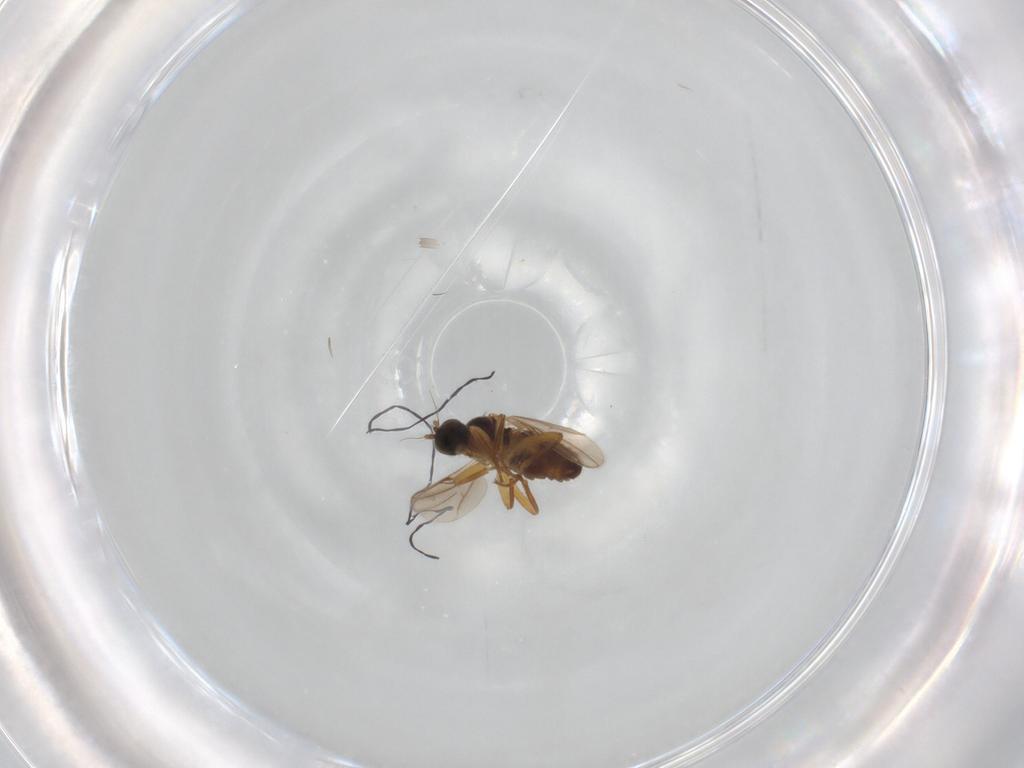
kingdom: Animalia
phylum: Arthropoda
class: Insecta
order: Diptera
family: Hybotidae
